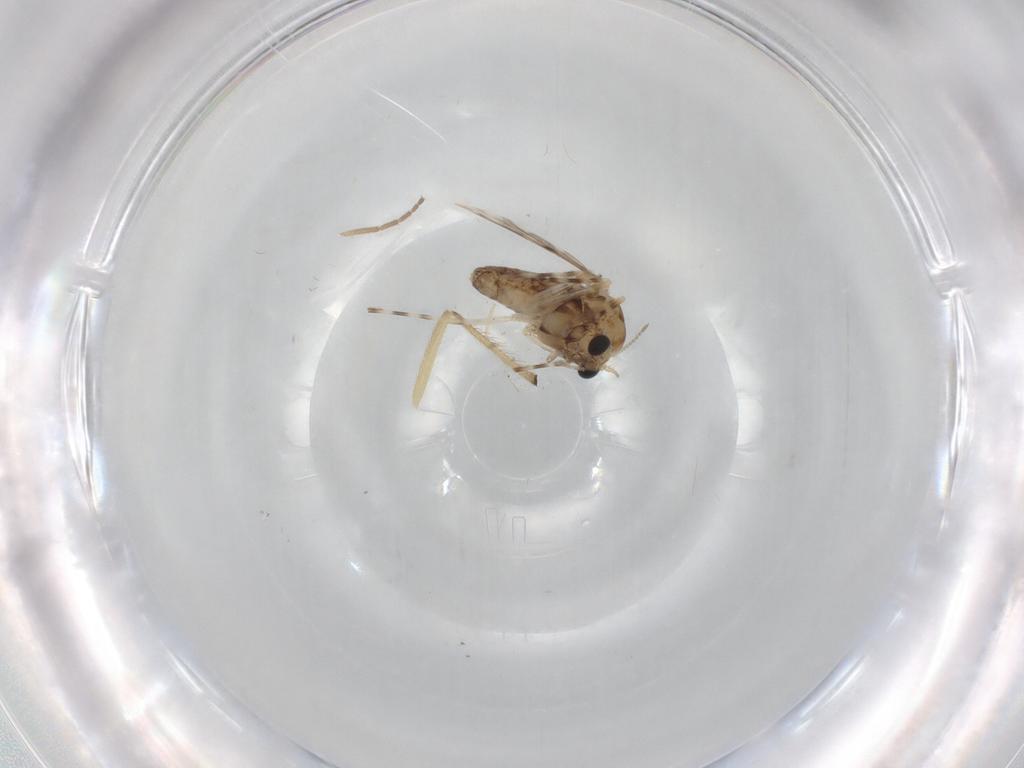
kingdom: Animalia
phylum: Arthropoda
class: Insecta
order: Diptera
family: Chironomidae
